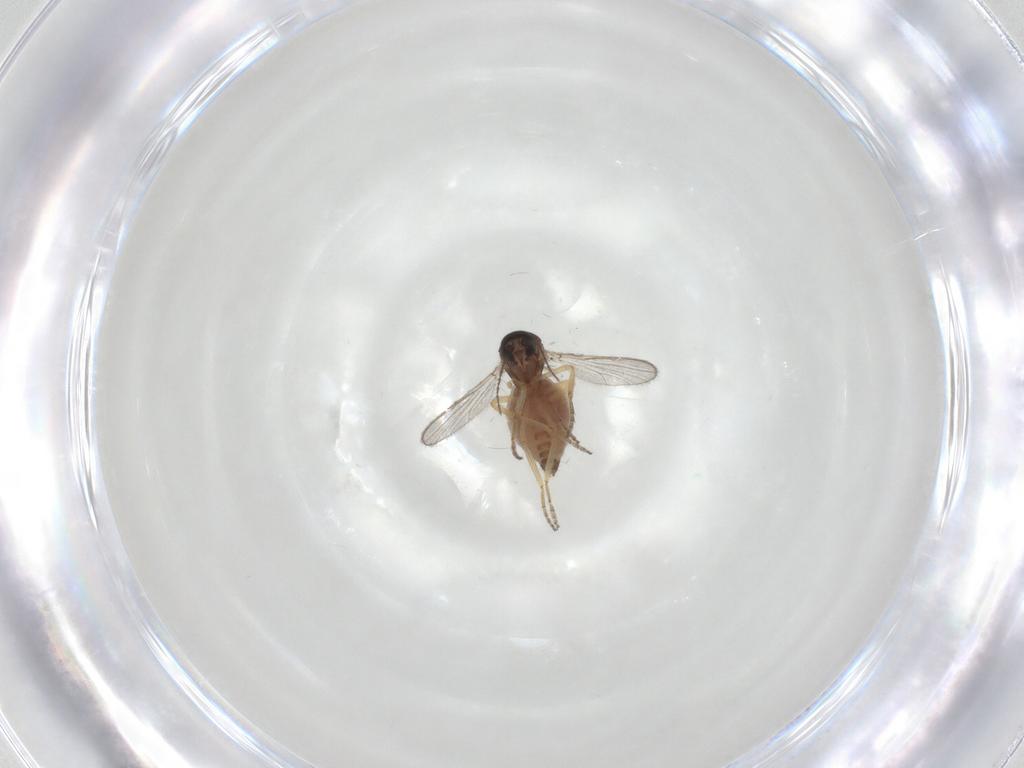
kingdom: Animalia
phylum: Arthropoda
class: Insecta
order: Diptera
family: Ceratopogonidae
